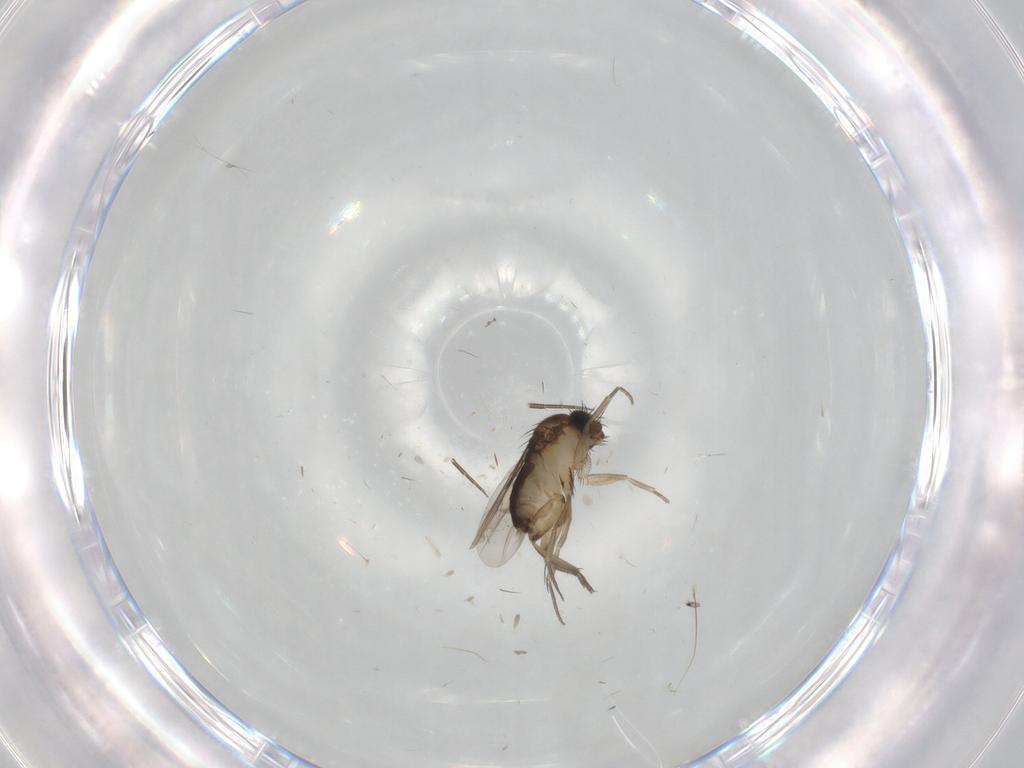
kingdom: Animalia
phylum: Arthropoda
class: Insecta
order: Diptera
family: Phoridae
